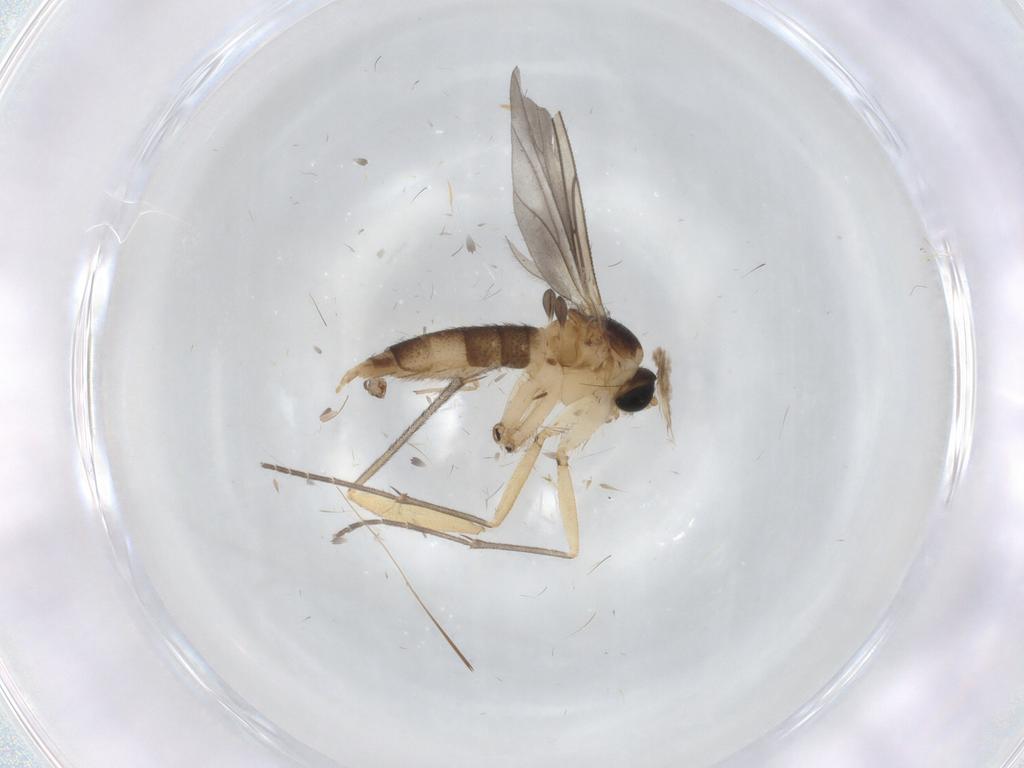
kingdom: Animalia
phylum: Arthropoda
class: Insecta
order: Diptera
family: Sciaridae
